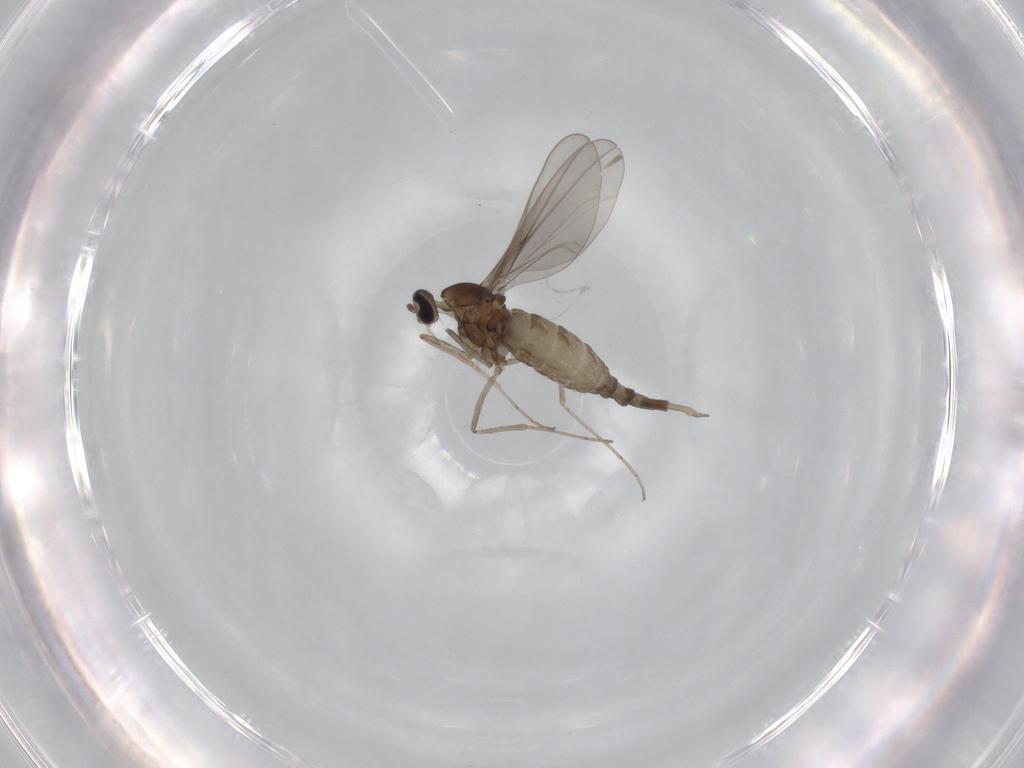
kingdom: Animalia
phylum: Arthropoda
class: Insecta
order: Diptera
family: Cecidomyiidae
